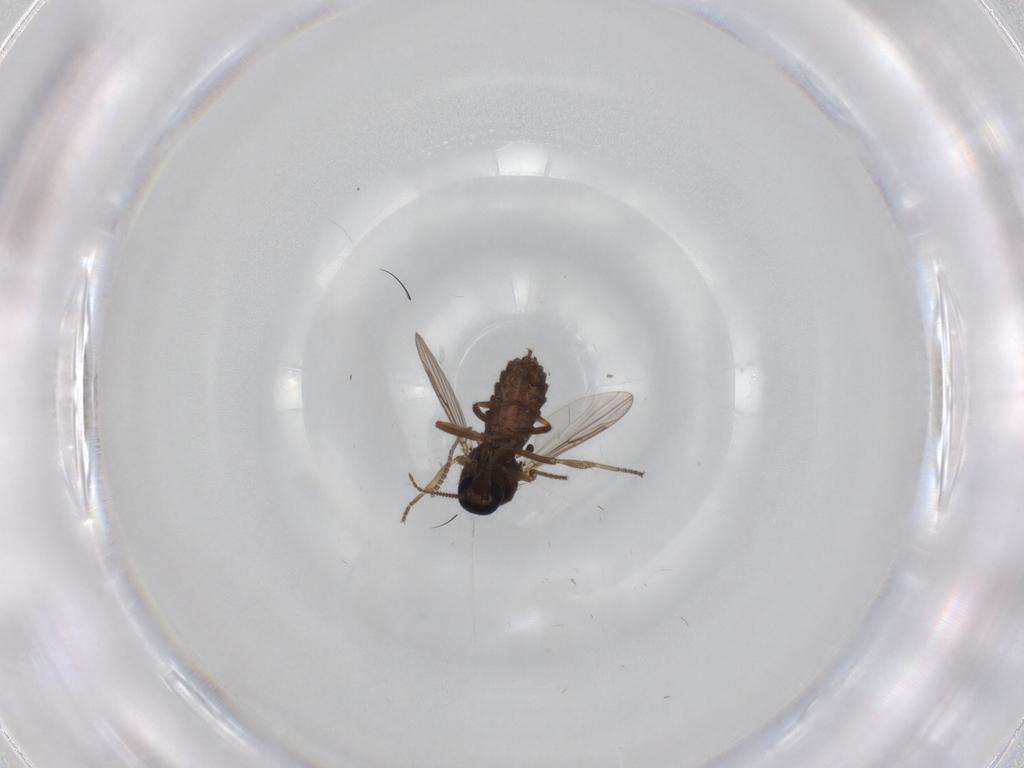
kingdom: Animalia
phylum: Arthropoda
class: Insecta
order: Diptera
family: Sciaridae
